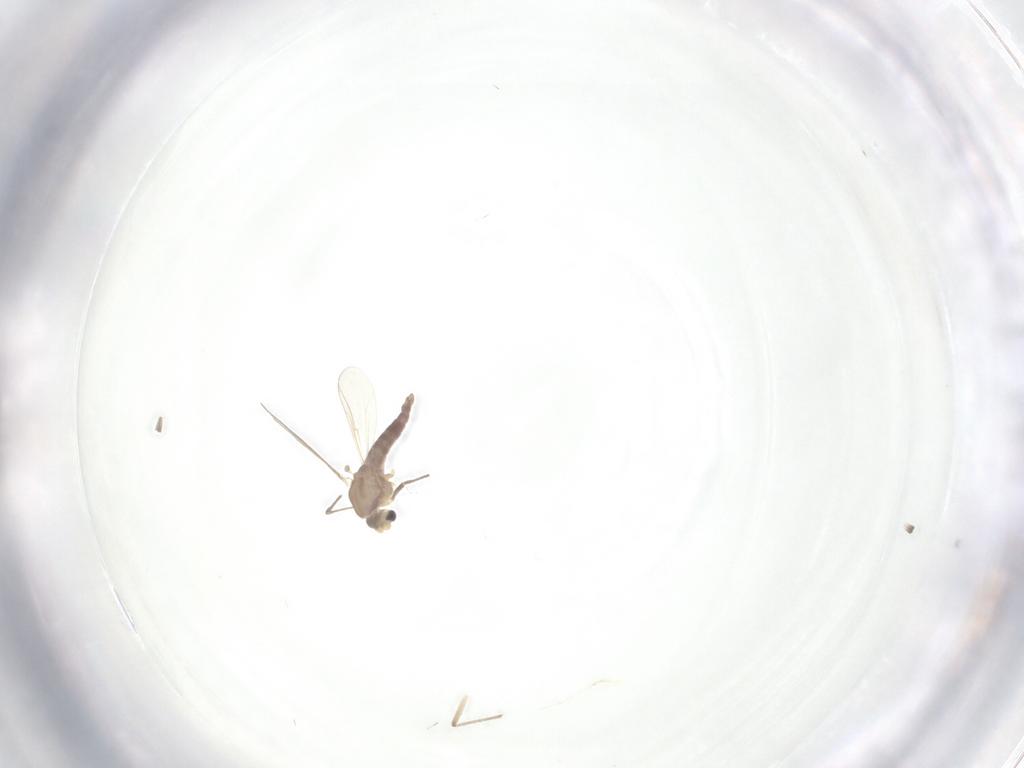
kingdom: Animalia
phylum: Arthropoda
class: Insecta
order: Diptera
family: Chironomidae
